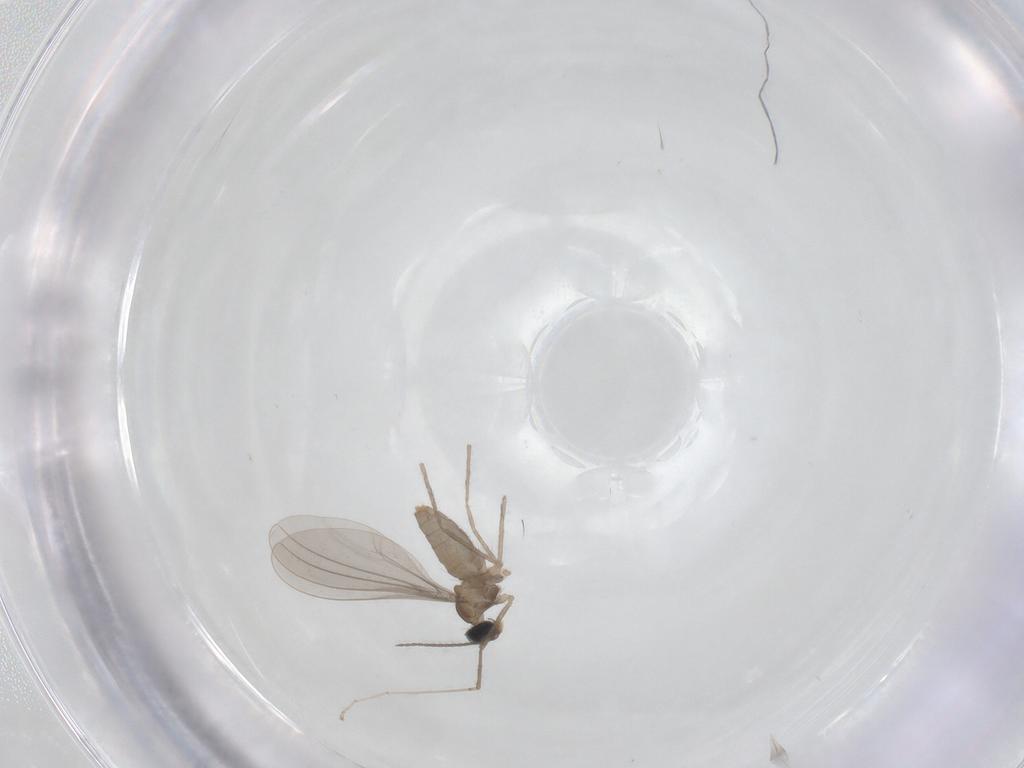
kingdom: Animalia
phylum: Arthropoda
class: Insecta
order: Diptera
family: Cecidomyiidae
